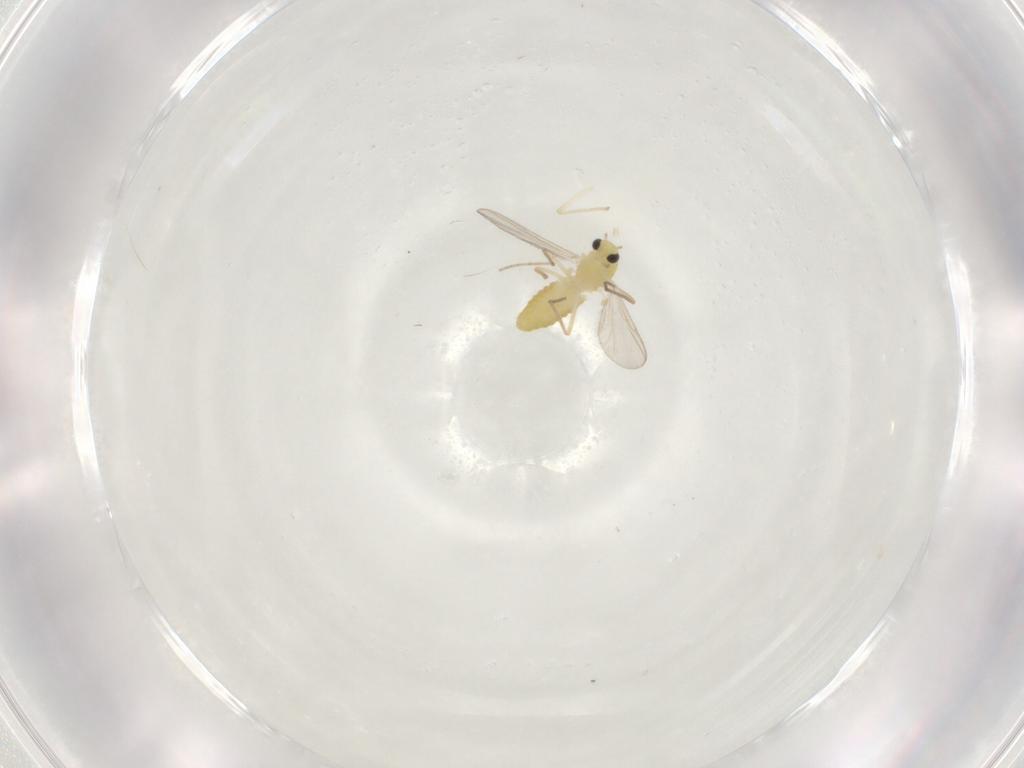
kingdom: Animalia
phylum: Arthropoda
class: Insecta
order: Diptera
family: Chironomidae
